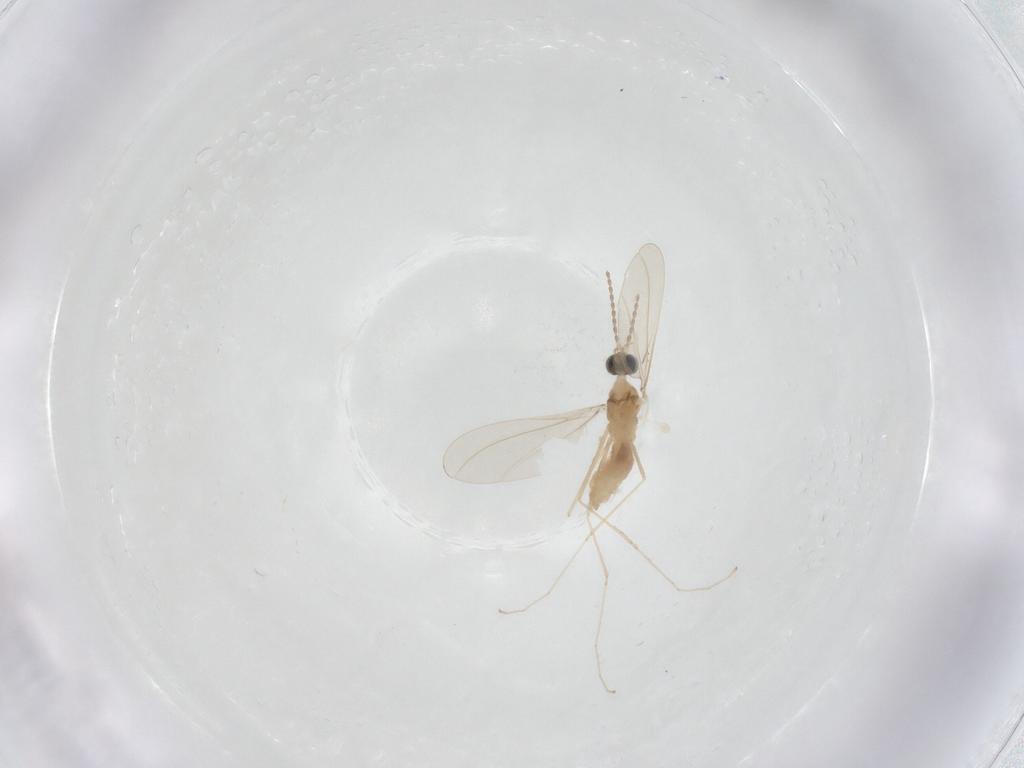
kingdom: Animalia
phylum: Arthropoda
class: Insecta
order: Diptera
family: Cecidomyiidae
